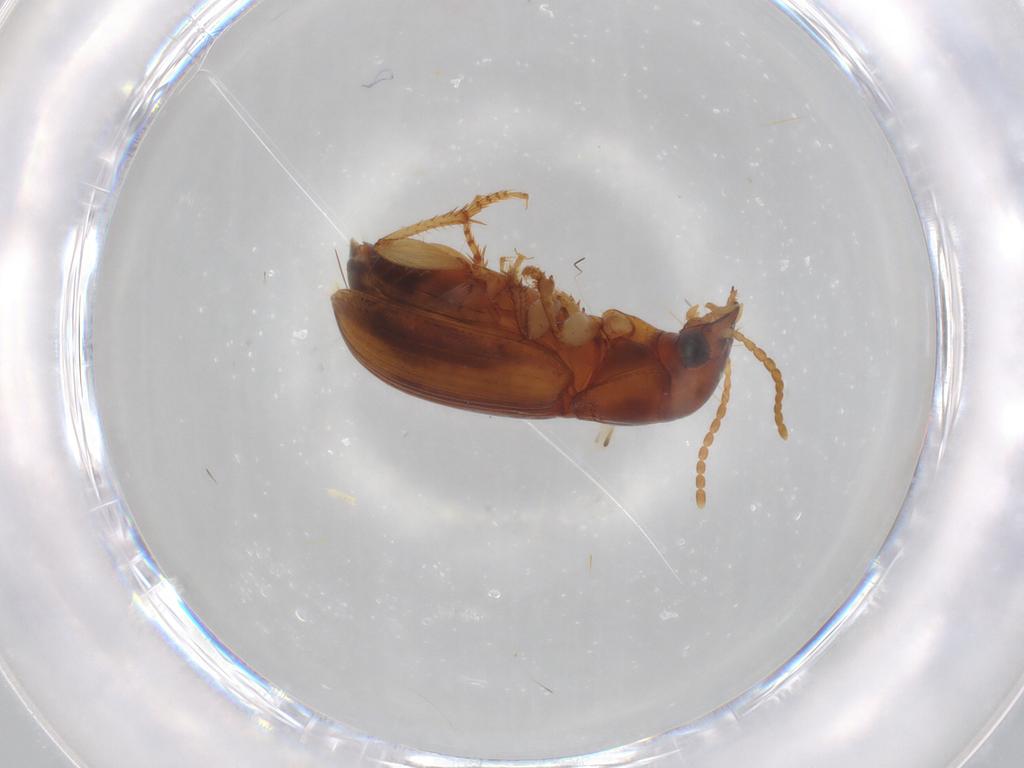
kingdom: Animalia
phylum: Arthropoda
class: Insecta
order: Coleoptera
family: Carabidae
